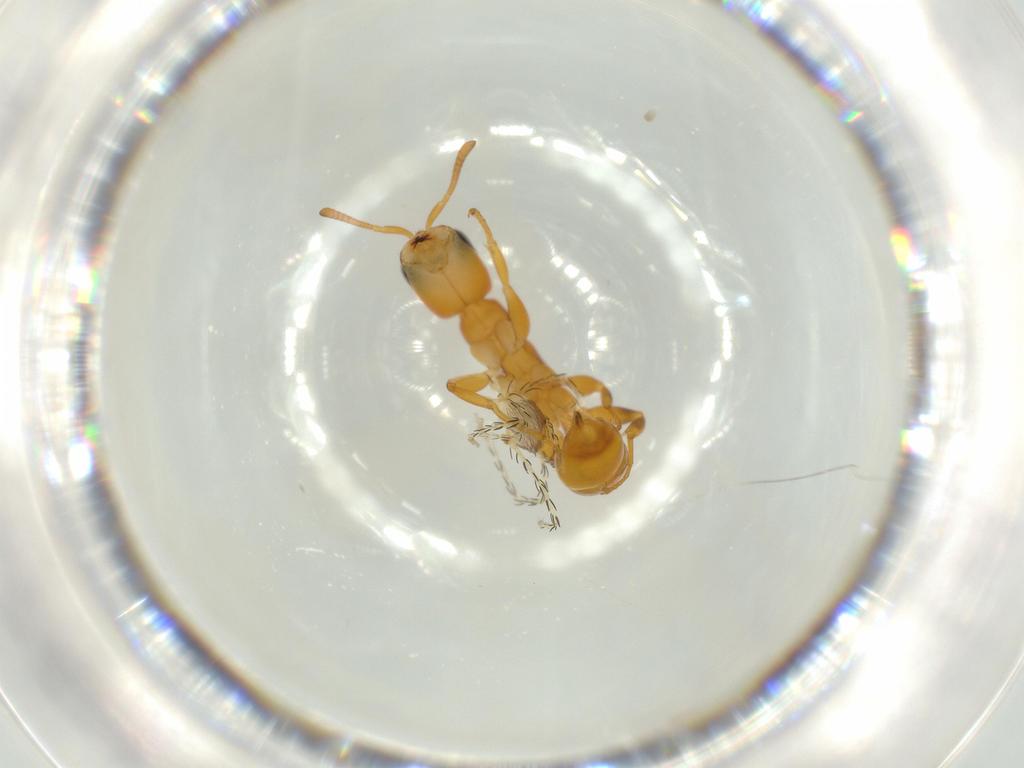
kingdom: Animalia
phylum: Arthropoda
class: Insecta
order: Hymenoptera
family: Formicidae
